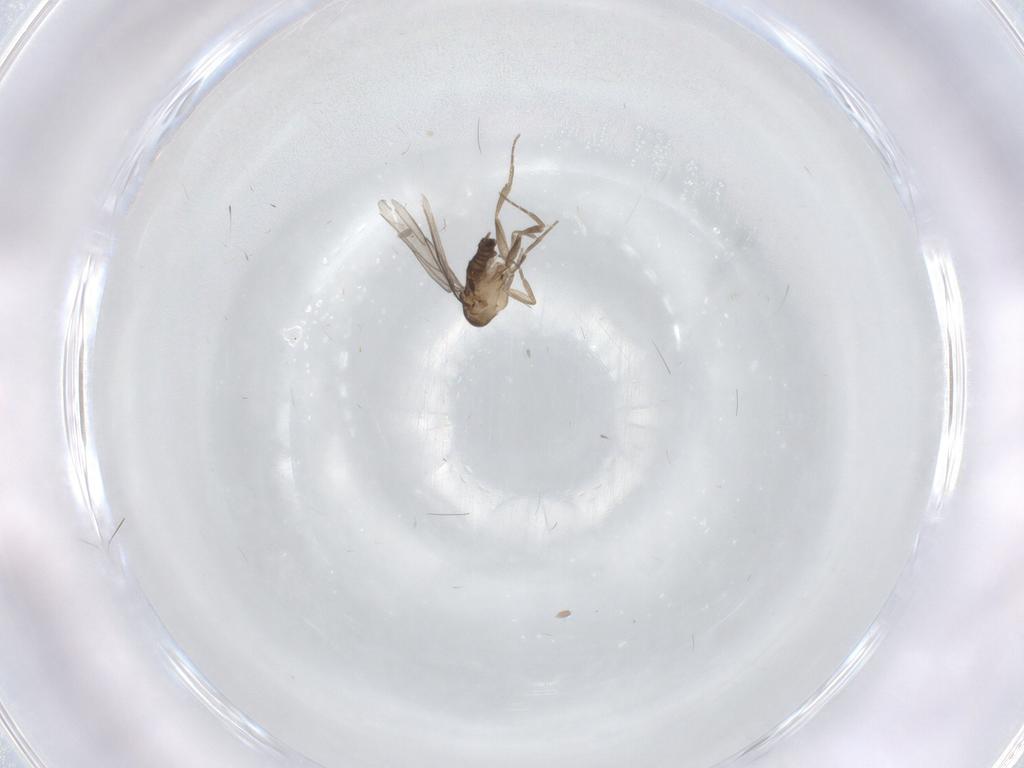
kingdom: Animalia
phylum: Arthropoda
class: Insecta
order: Diptera
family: Phoridae
